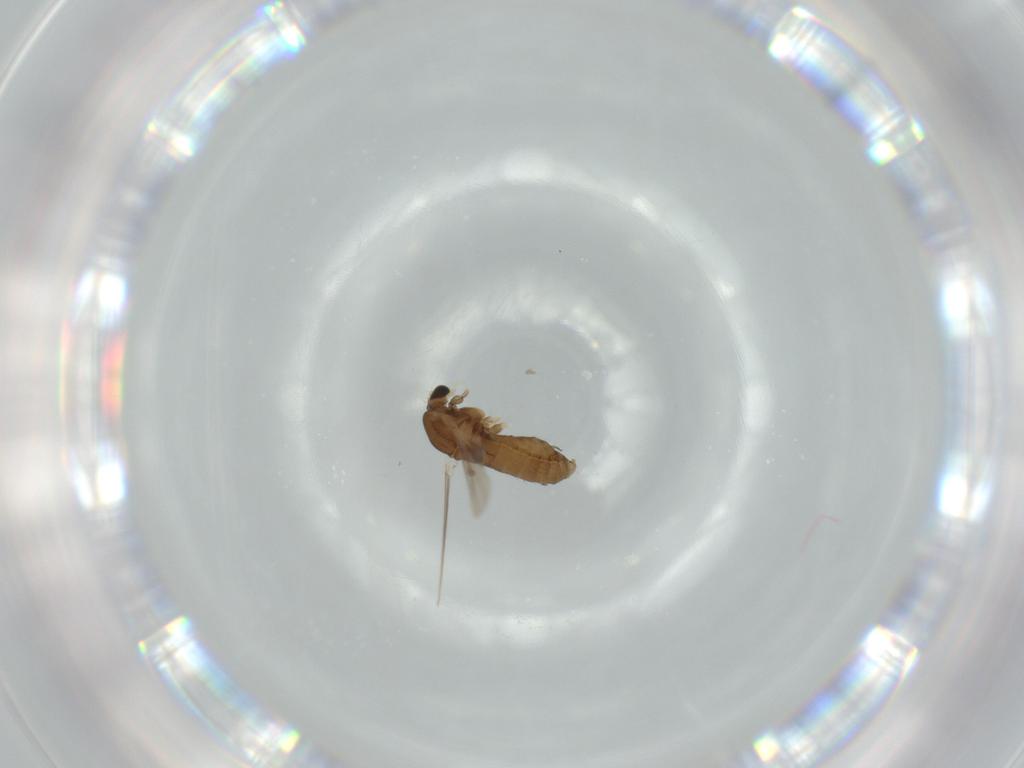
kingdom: Animalia
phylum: Arthropoda
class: Insecta
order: Diptera
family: Chironomidae
